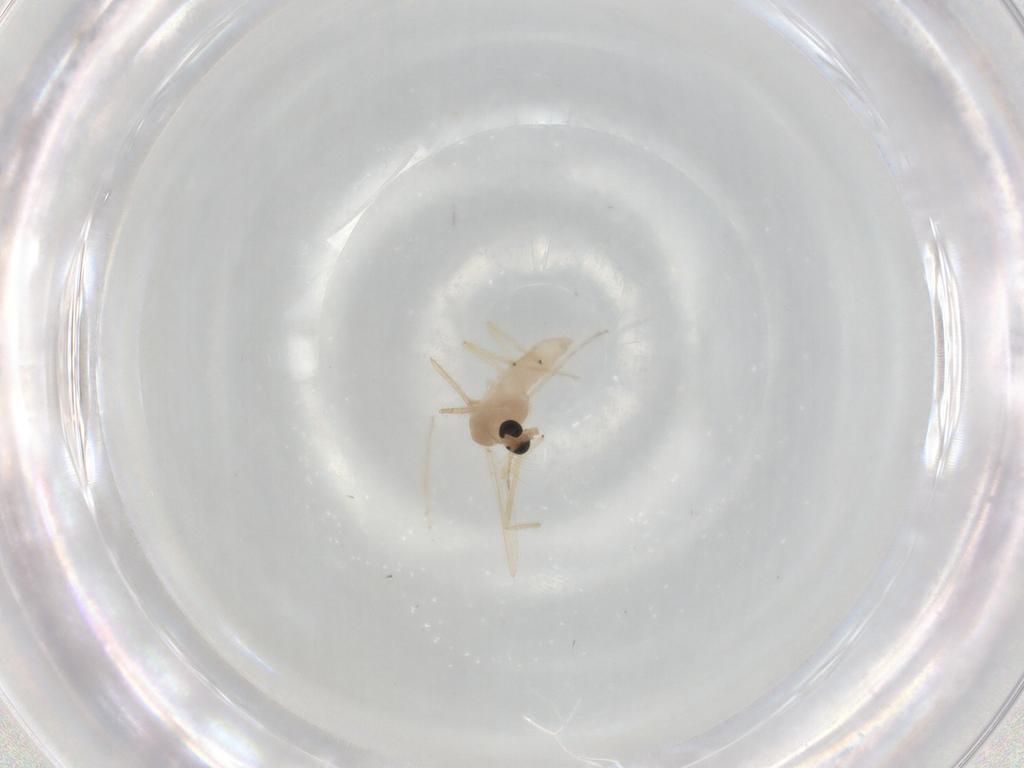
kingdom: Animalia
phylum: Arthropoda
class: Insecta
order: Diptera
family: Chironomidae
